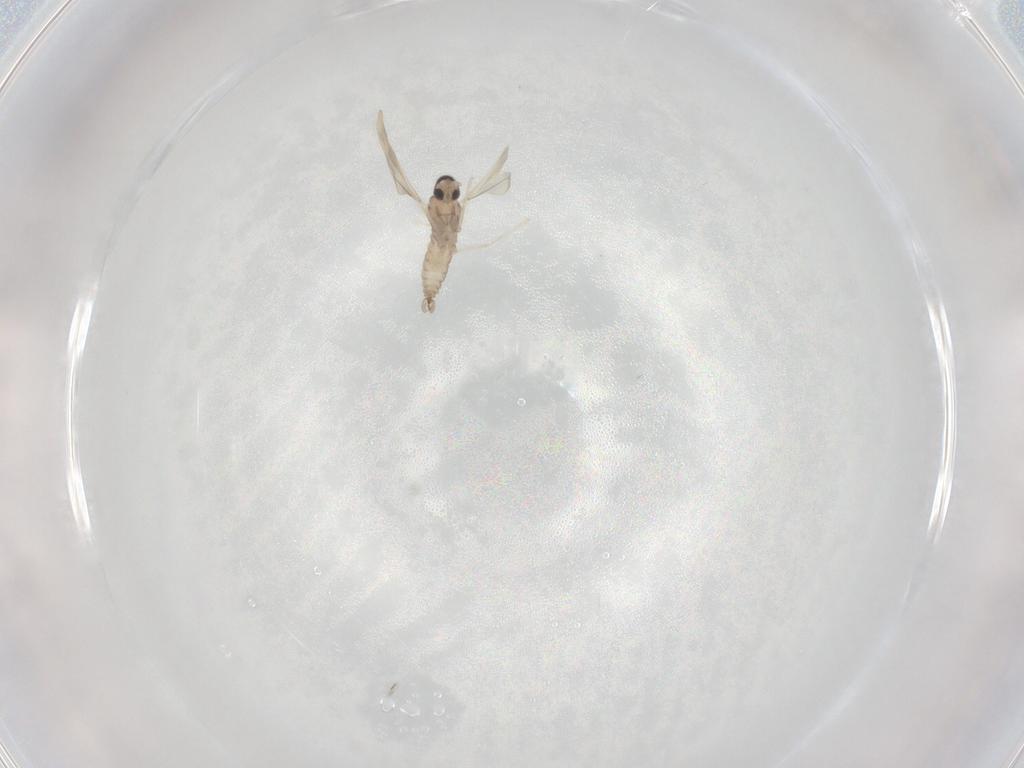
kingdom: Animalia
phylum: Arthropoda
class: Insecta
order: Diptera
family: Cecidomyiidae
